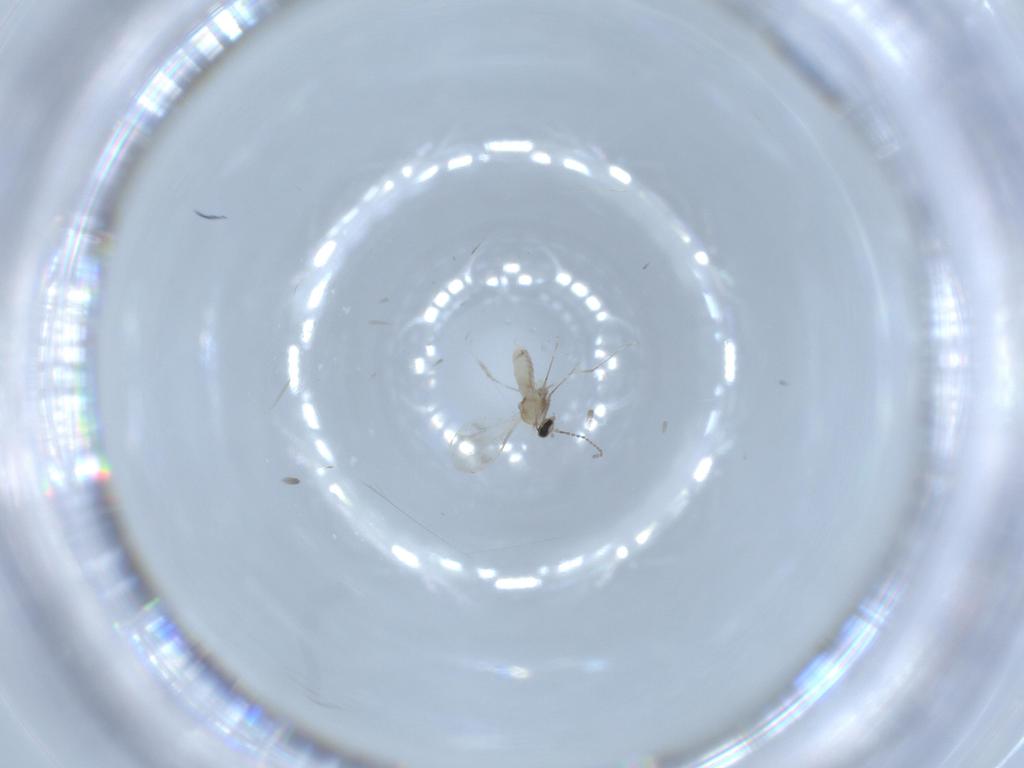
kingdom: Animalia
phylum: Arthropoda
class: Insecta
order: Diptera
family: Cecidomyiidae
